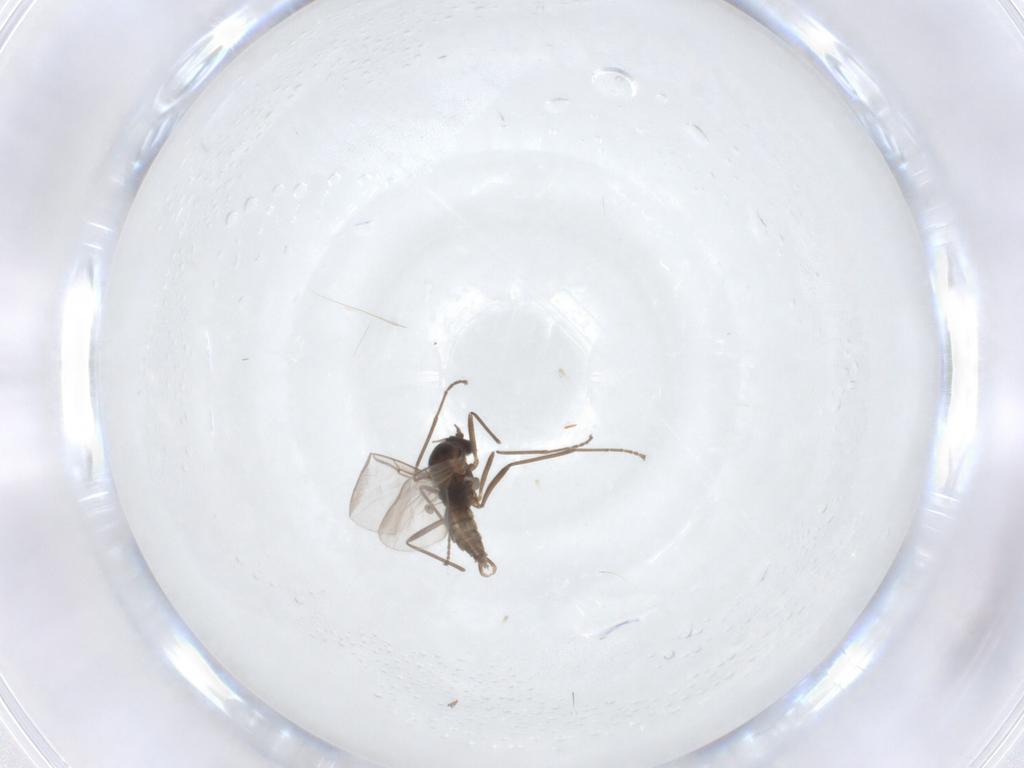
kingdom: Animalia
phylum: Arthropoda
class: Insecta
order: Diptera
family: Cecidomyiidae
